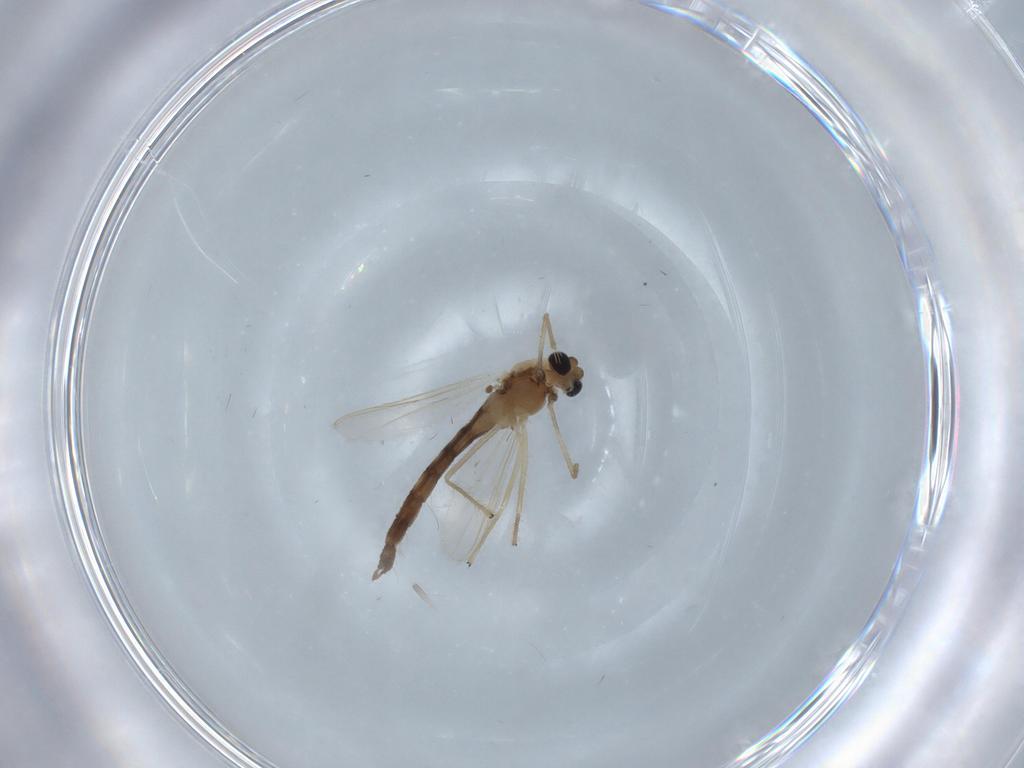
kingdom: Animalia
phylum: Arthropoda
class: Insecta
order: Diptera
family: Chironomidae
